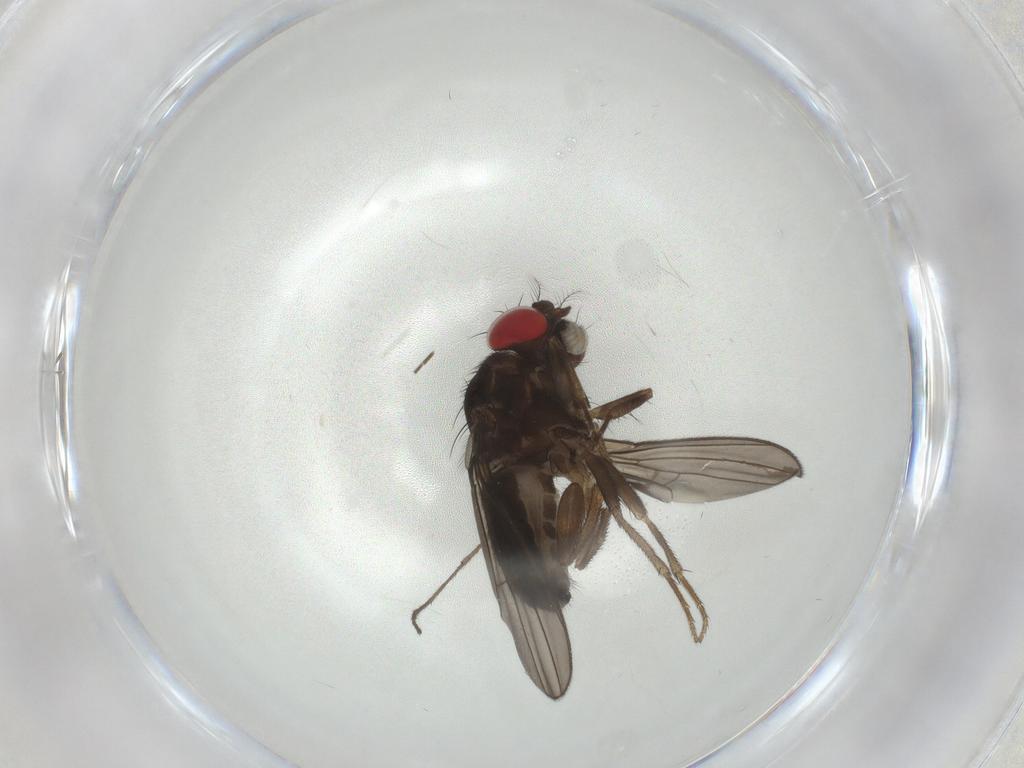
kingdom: Animalia
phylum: Arthropoda
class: Insecta
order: Diptera
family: Drosophilidae
